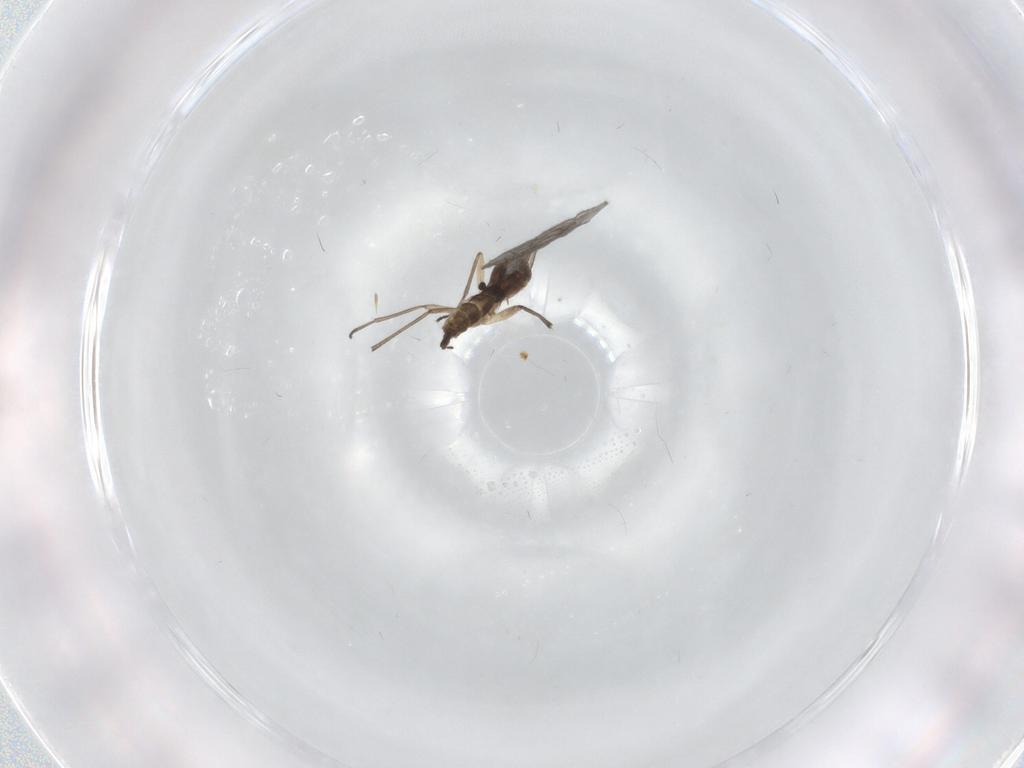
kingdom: Animalia
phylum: Arthropoda
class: Insecta
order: Diptera
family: Sciaridae
